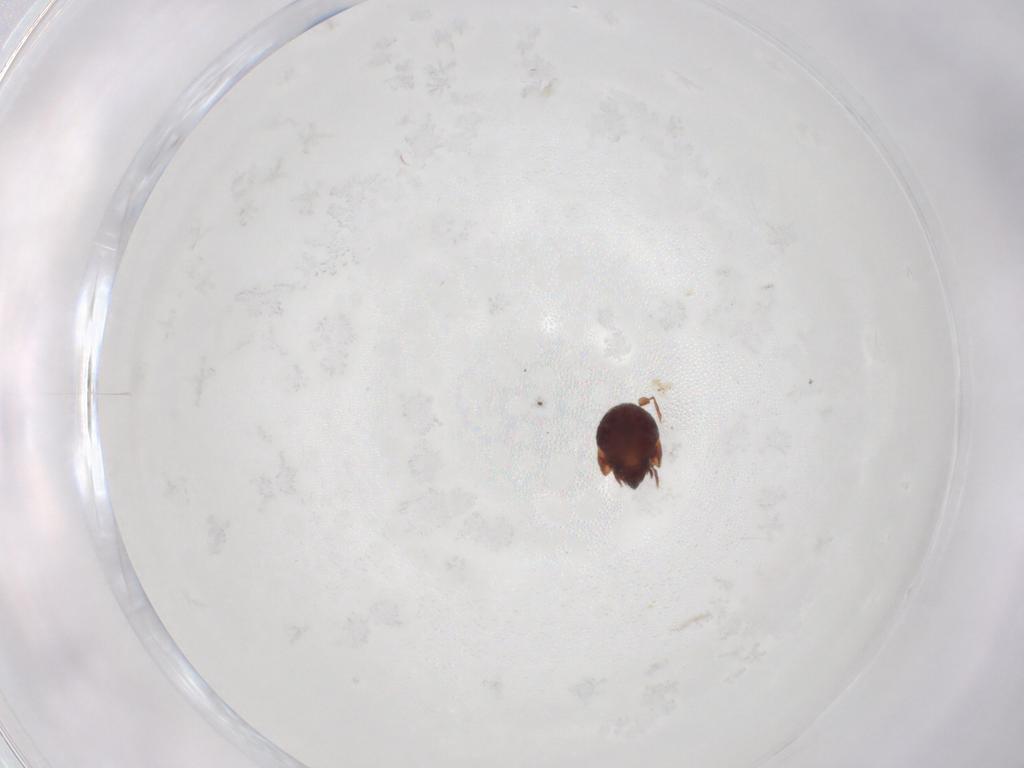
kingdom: Animalia
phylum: Arthropoda
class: Arachnida
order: Sarcoptiformes
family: Humerobatidae
